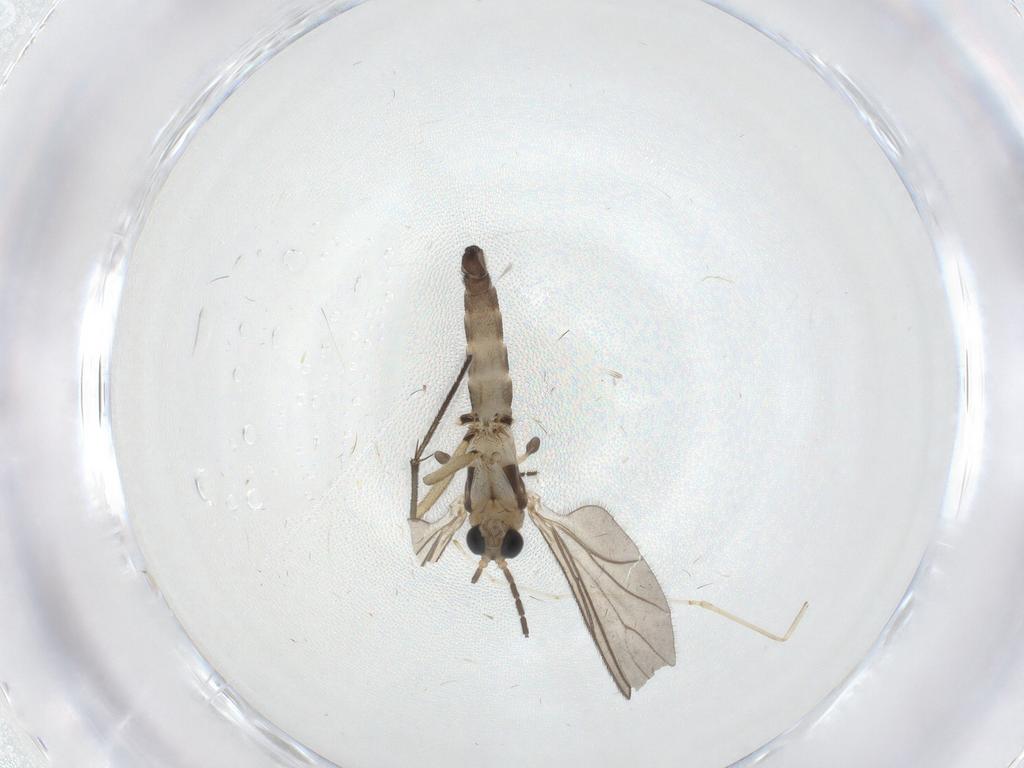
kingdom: Animalia
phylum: Arthropoda
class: Insecta
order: Diptera
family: Sciaridae
